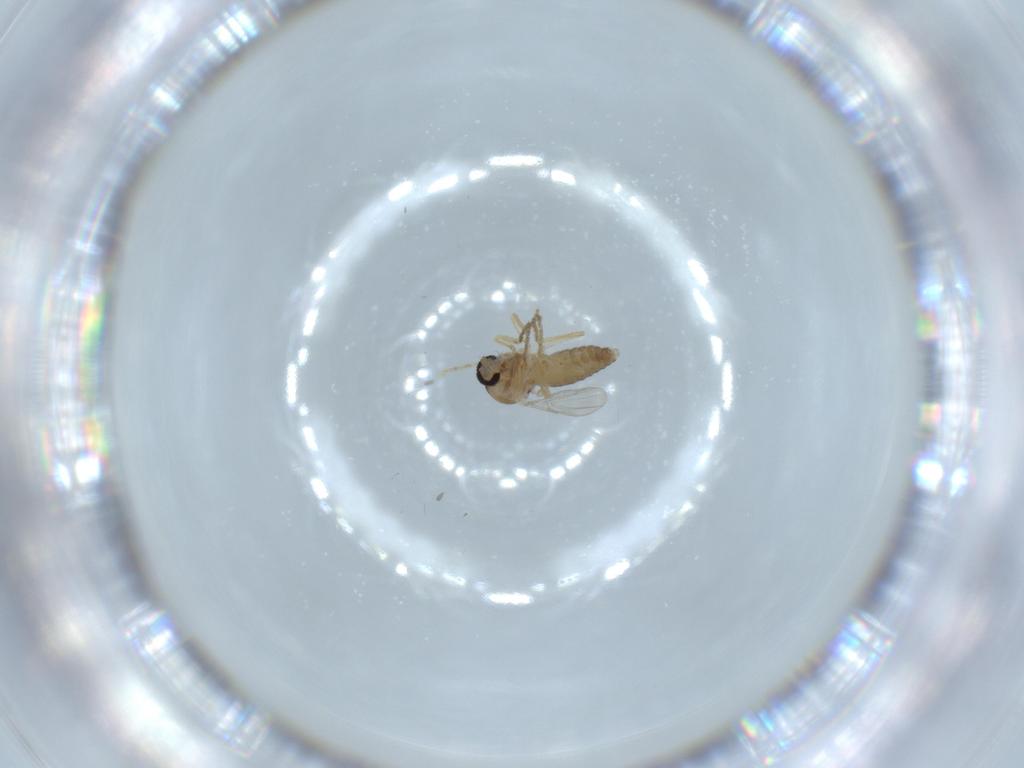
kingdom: Animalia
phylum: Arthropoda
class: Insecta
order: Diptera
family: Ceratopogonidae
